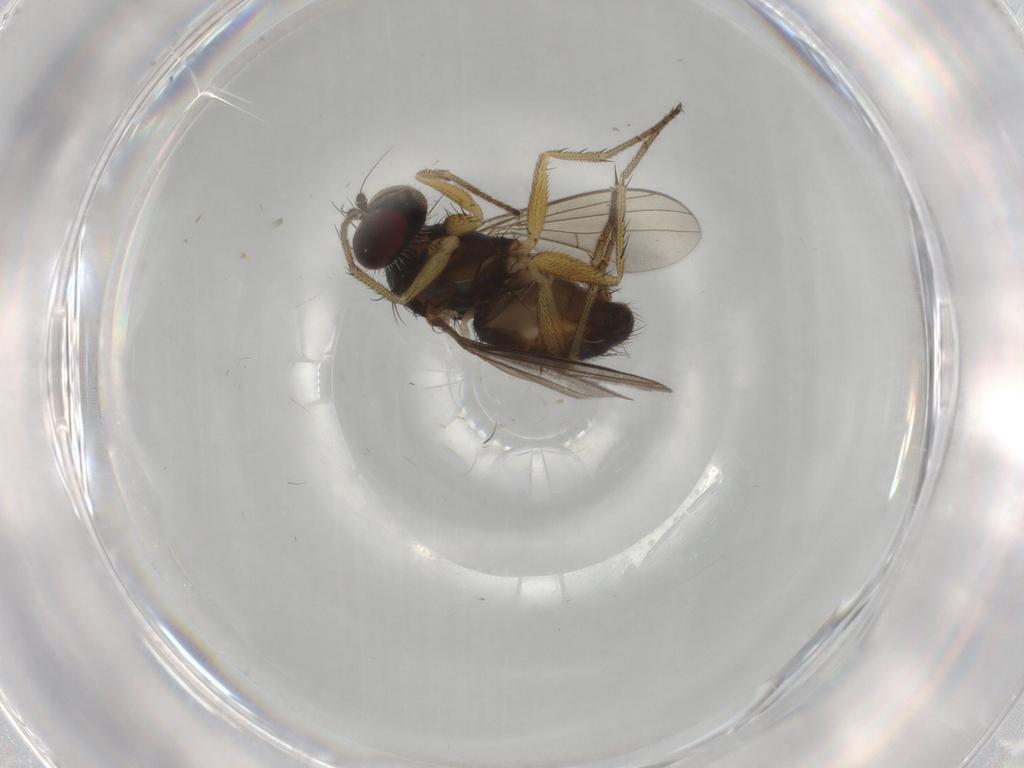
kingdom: Animalia
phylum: Arthropoda
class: Insecta
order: Diptera
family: Dolichopodidae
